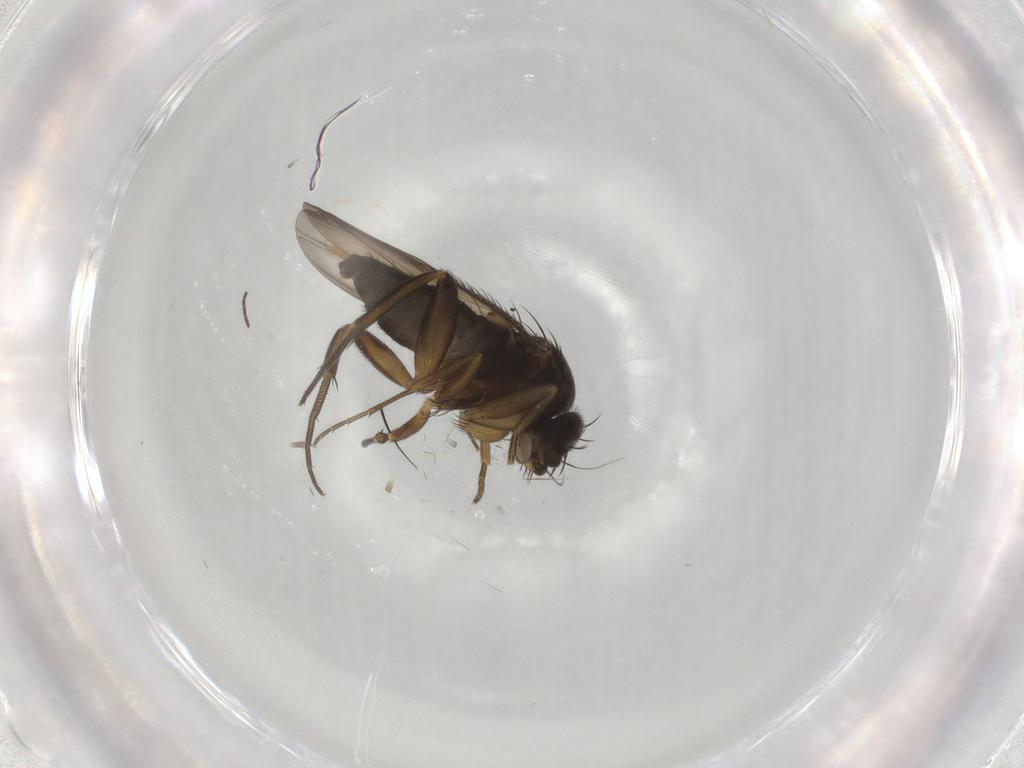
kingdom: Animalia
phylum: Arthropoda
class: Insecta
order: Diptera
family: Phoridae
